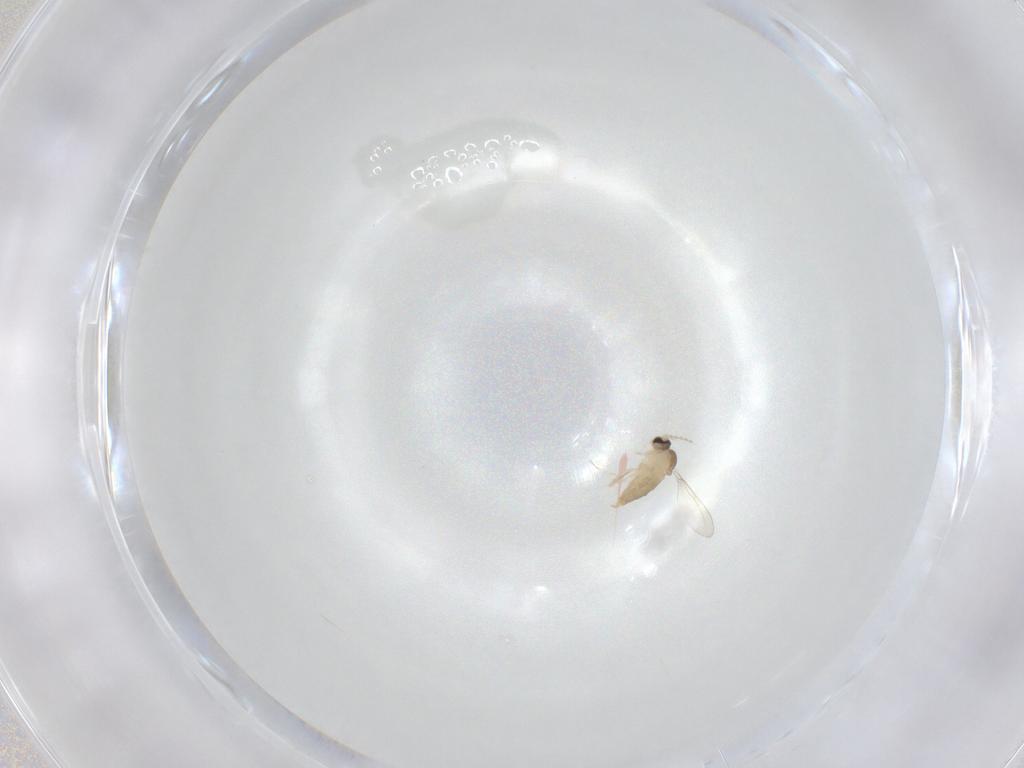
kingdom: Animalia
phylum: Arthropoda
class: Insecta
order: Diptera
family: Cecidomyiidae
